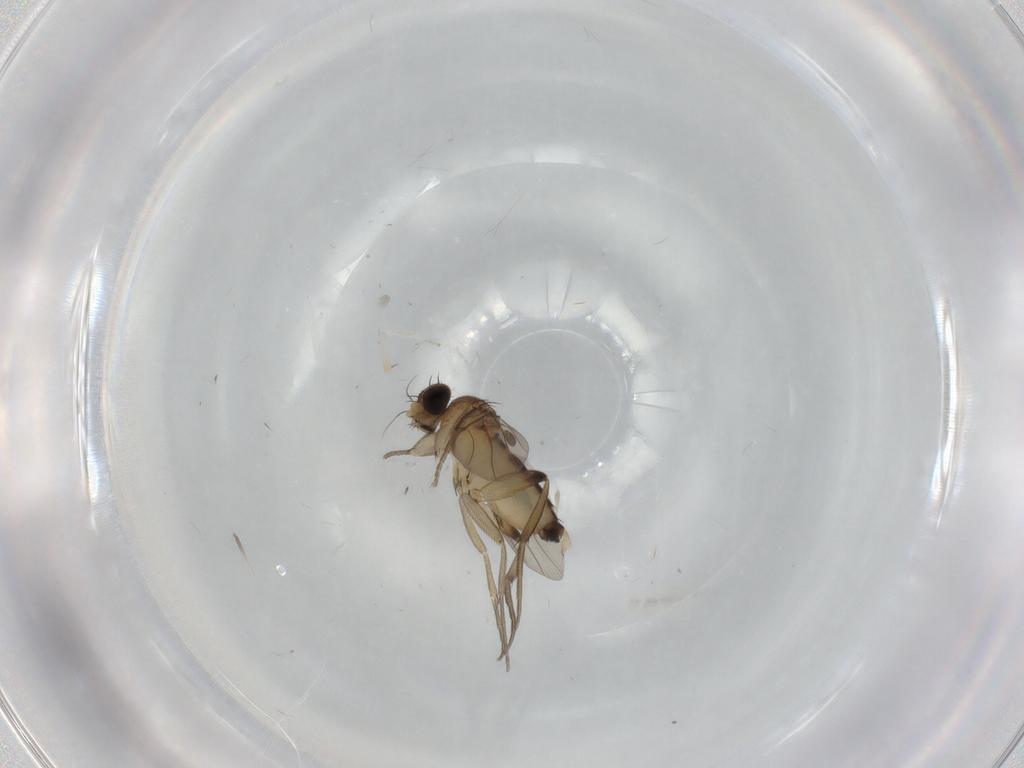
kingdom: Animalia
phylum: Arthropoda
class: Insecta
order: Diptera
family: Phoridae
